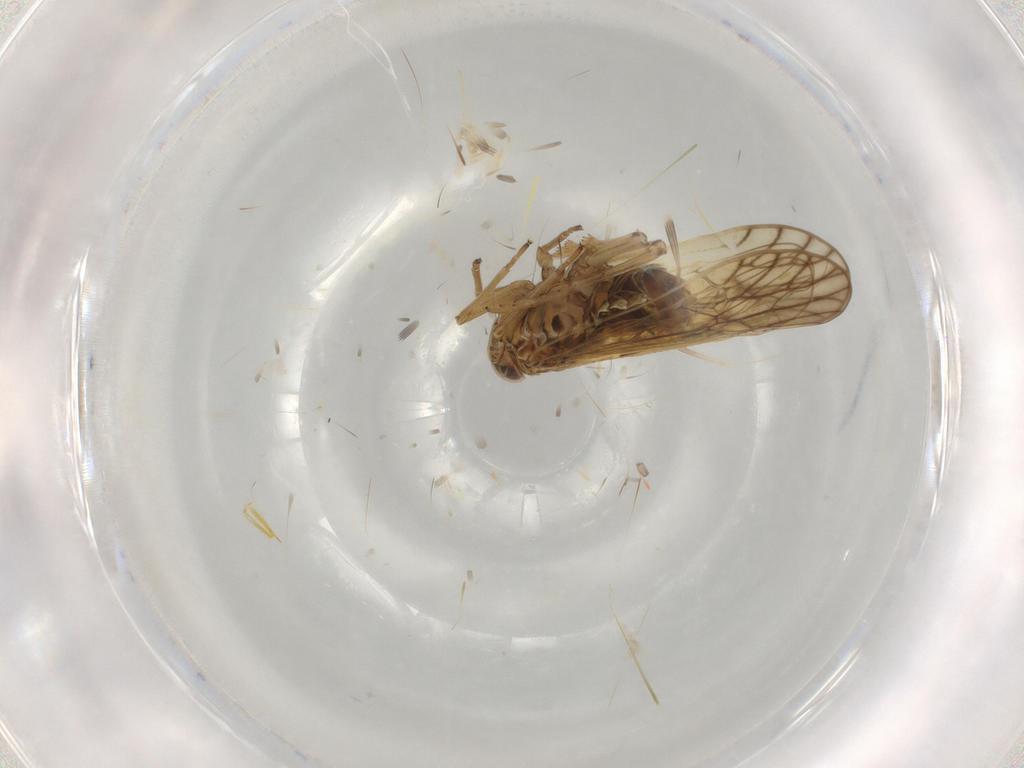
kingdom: Animalia
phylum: Arthropoda
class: Insecta
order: Hemiptera
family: Delphacidae
